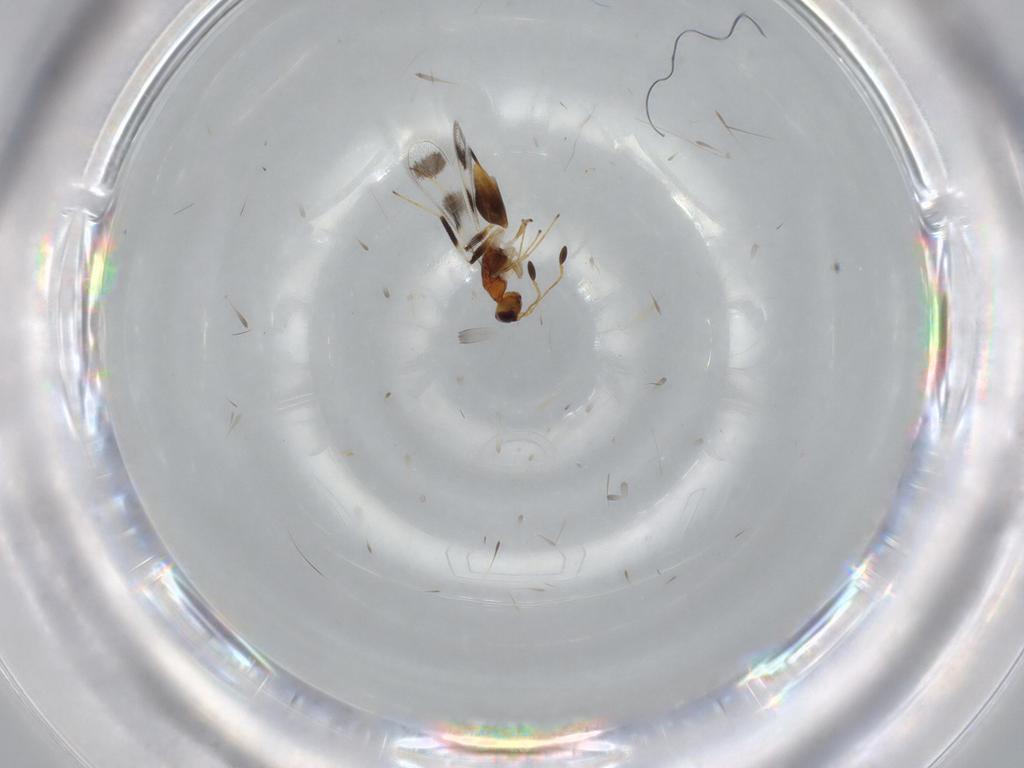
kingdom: Animalia
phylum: Arthropoda
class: Insecta
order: Hymenoptera
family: Mymaridae
